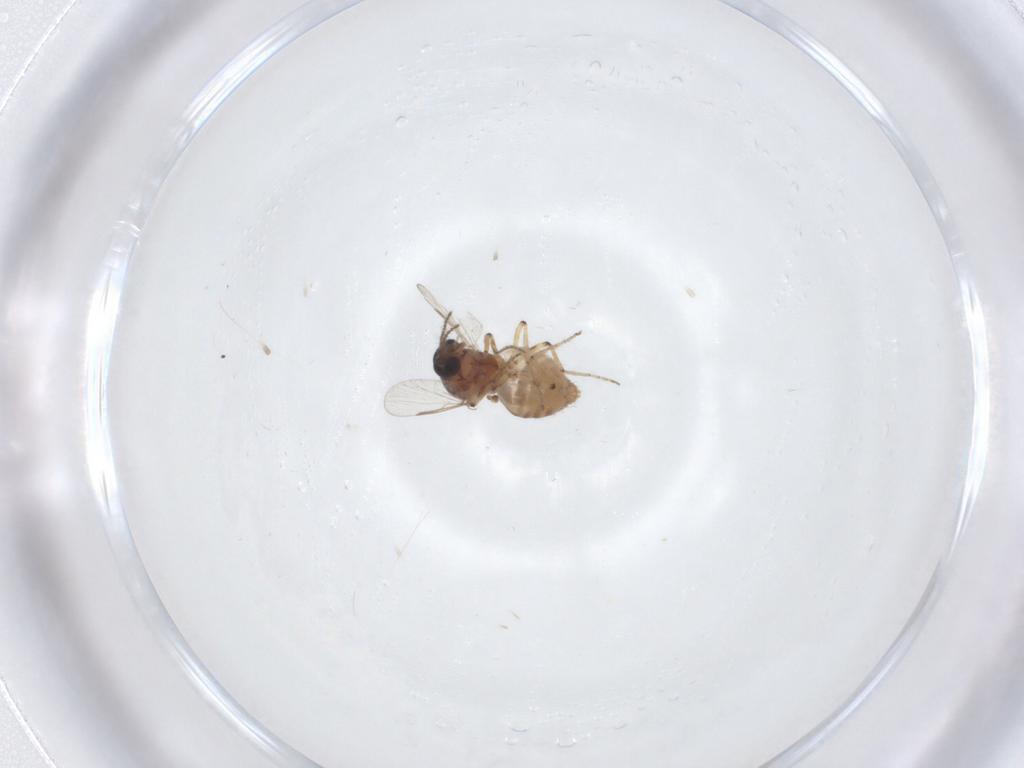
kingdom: Animalia
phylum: Arthropoda
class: Insecta
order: Diptera
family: Ceratopogonidae
